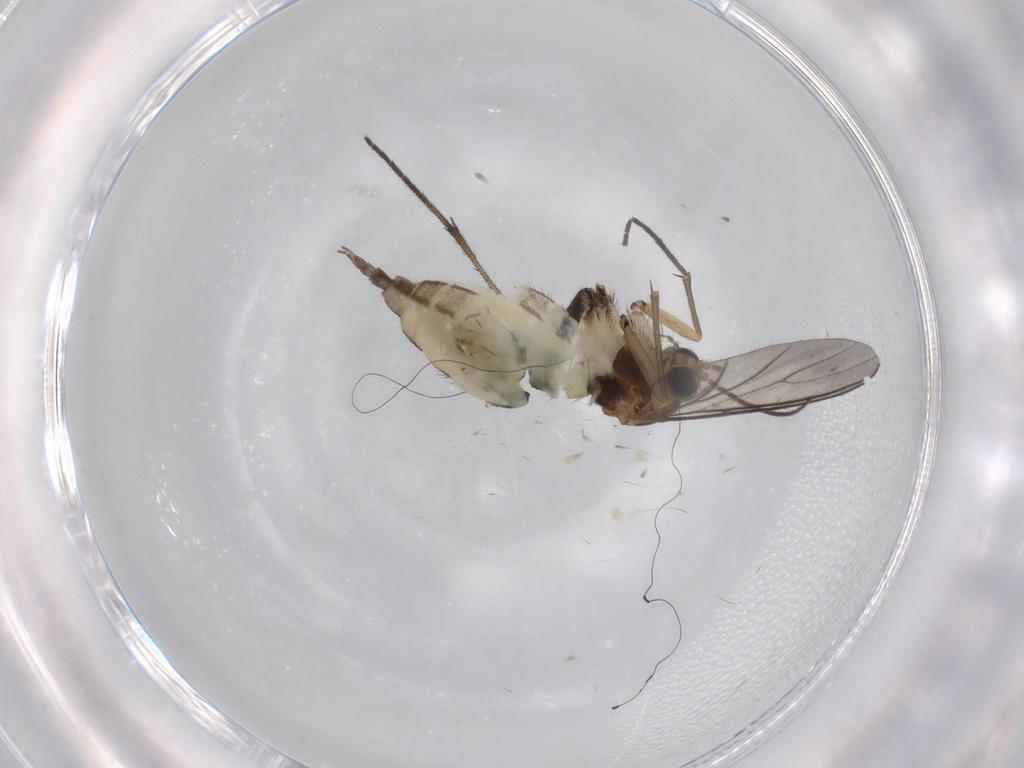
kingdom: Animalia
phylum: Arthropoda
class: Insecta
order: Diptera
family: Sciaridae
